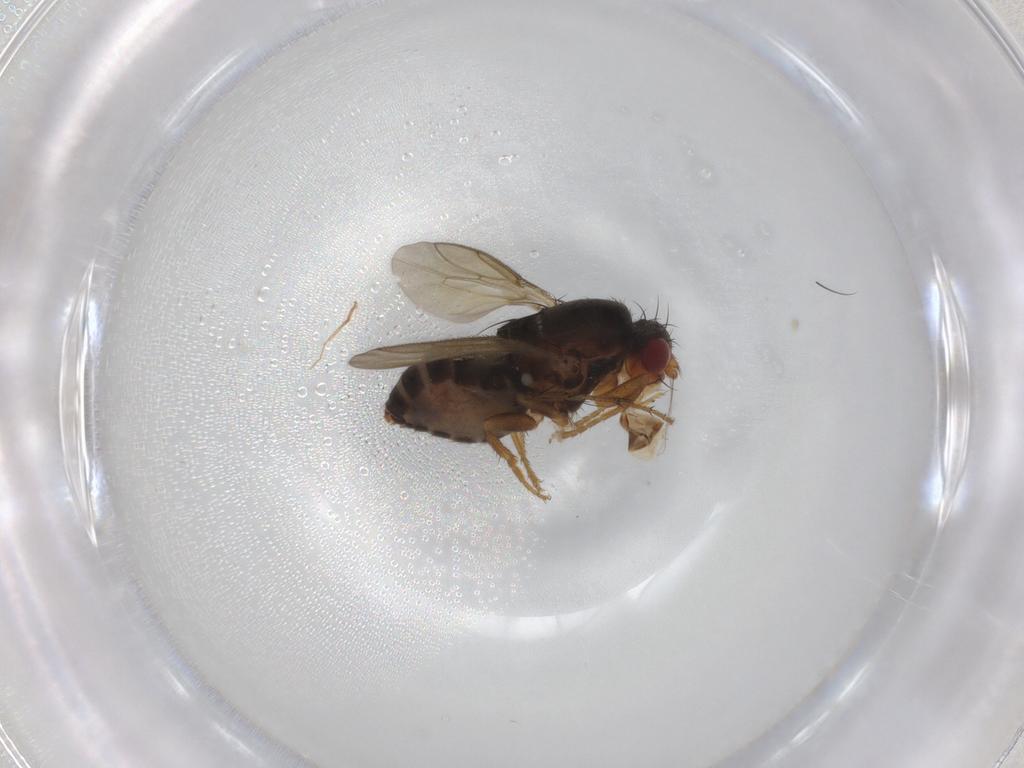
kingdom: Animalia
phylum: Arthropoda
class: Insecta
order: Diptera
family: Sphaeroceridae
